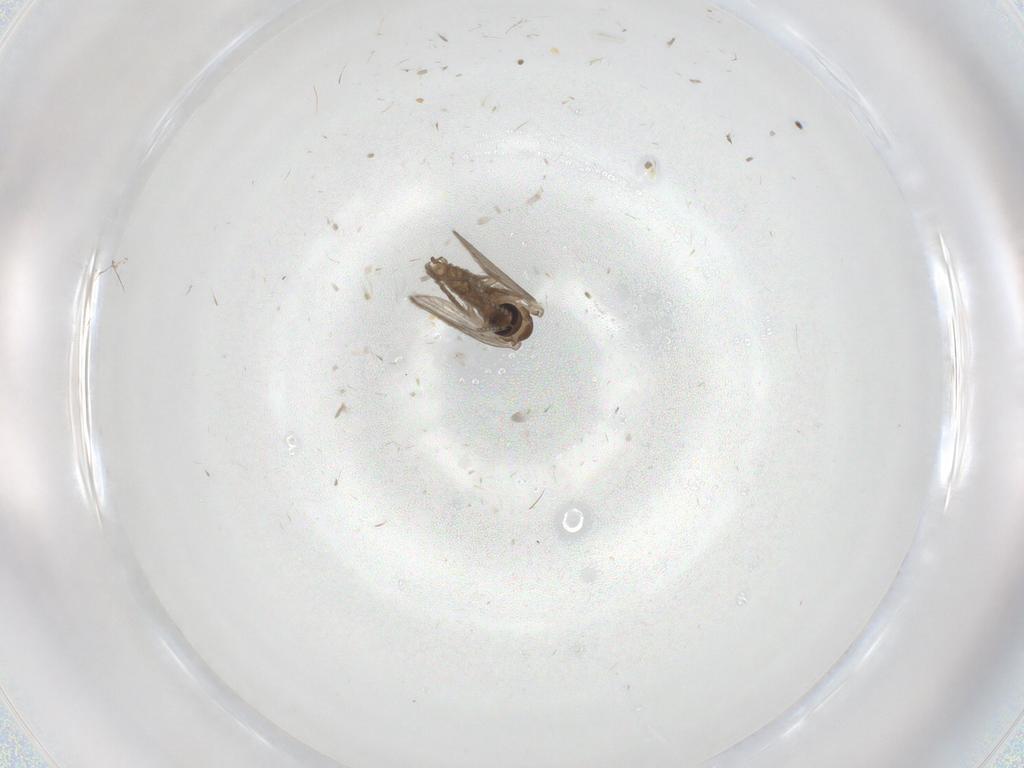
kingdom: Animalia
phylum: Arthropoda
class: Insecta
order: Diptera
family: Psychodidae
